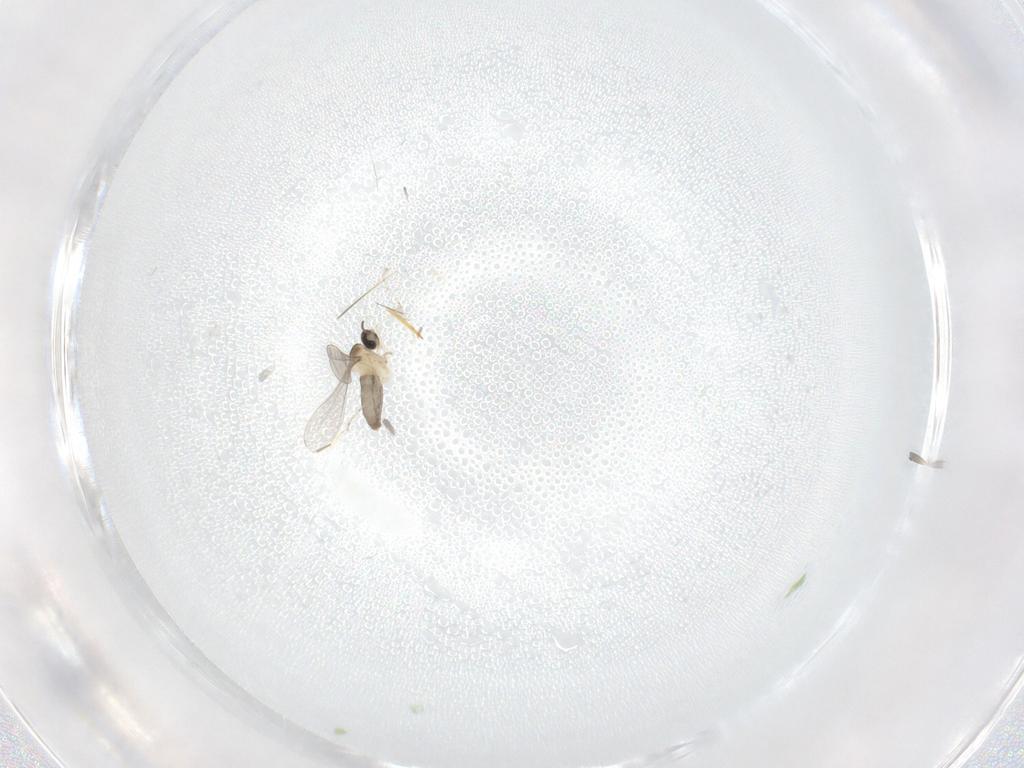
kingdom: Animalia
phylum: Arthropoda
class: Insecta
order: Diptera
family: Cecidomyiidae
